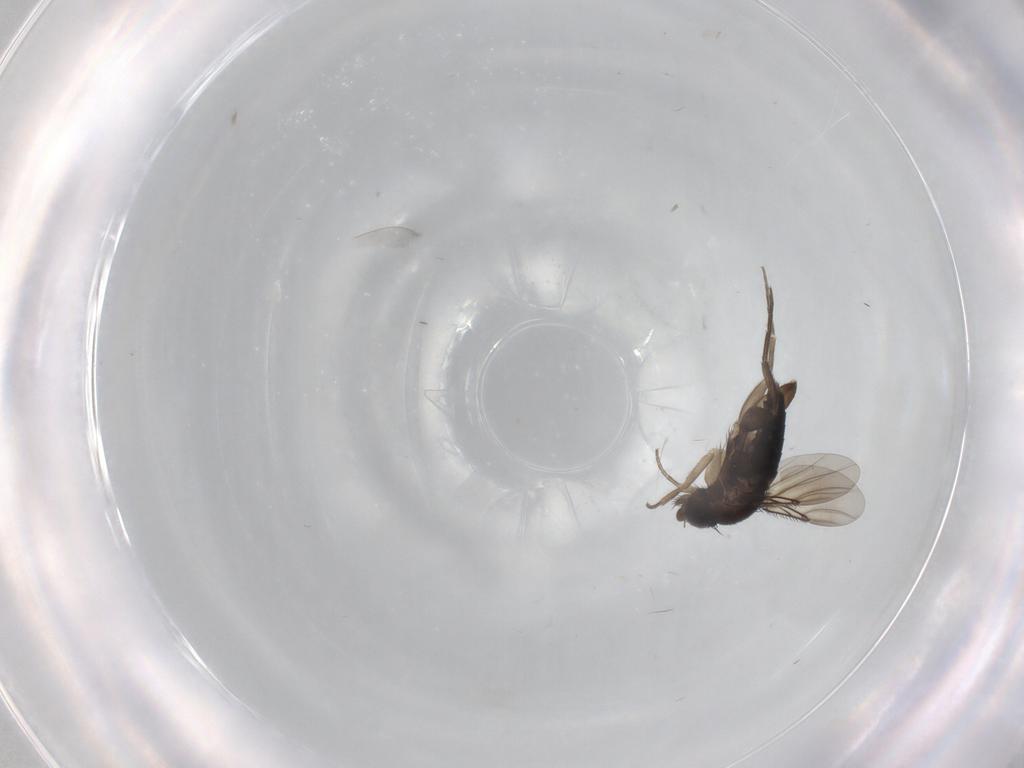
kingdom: Animalia
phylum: Arthropoda
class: Insecta
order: Diptera
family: Phoridae
